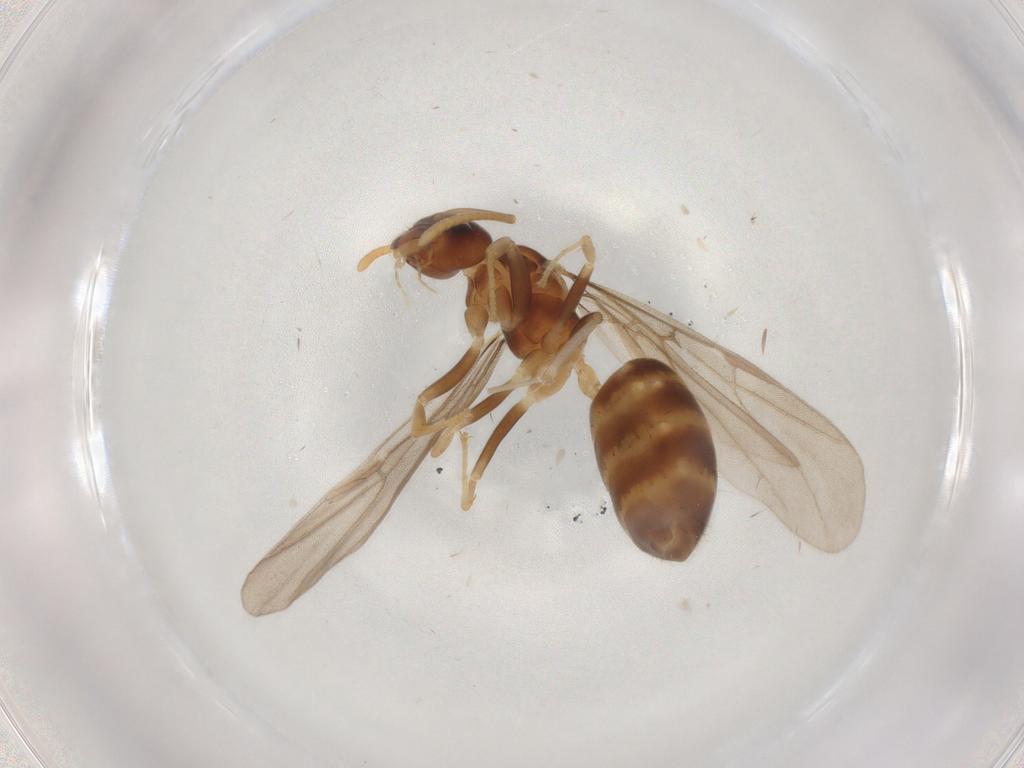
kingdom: Animalia
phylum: Arthropoda
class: Insecta
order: Hymenoptera
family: Formicidae
